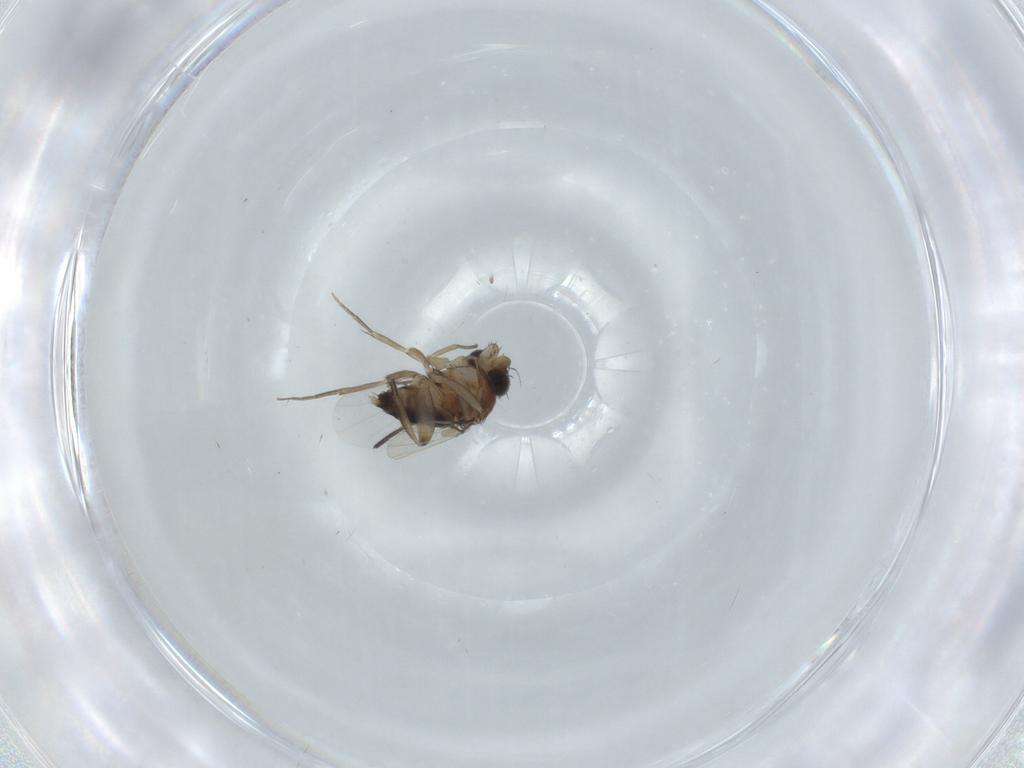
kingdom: Animalia
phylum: Arthropoda
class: Insecta
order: Diptera
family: Phoridae
